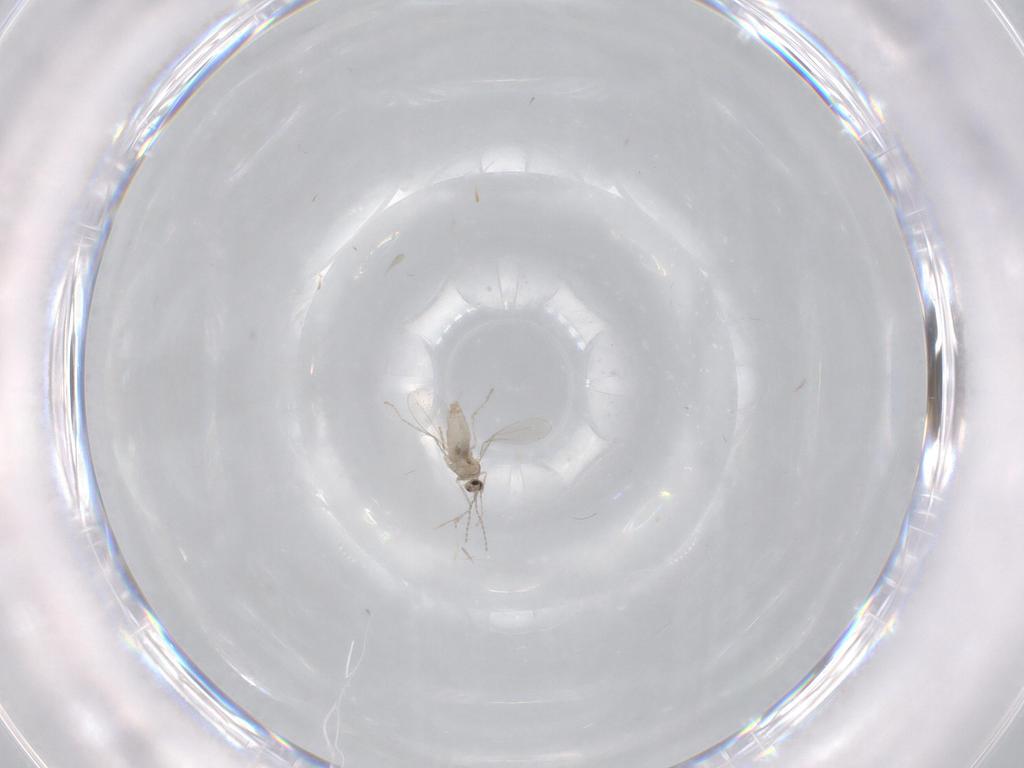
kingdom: Animalia
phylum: Arthropoda
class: Insecta
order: Diptera
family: Cecidomyiidae
